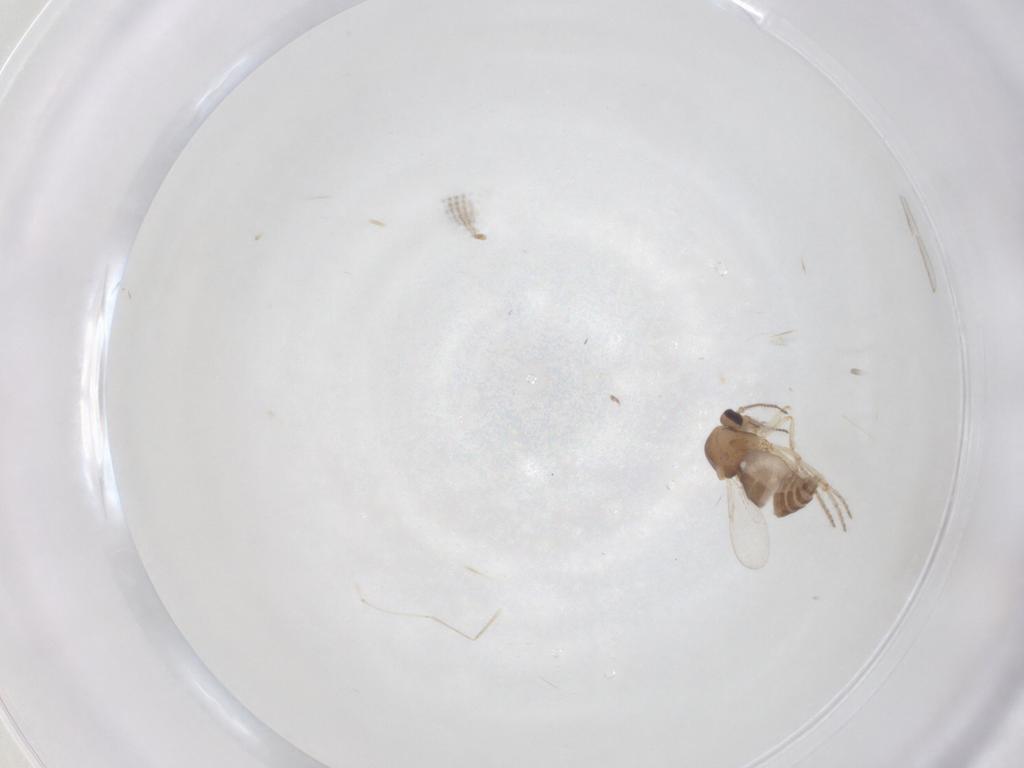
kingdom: Animalia
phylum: Arthropoda
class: Insecta
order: Diptera
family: Ceratopogonidae
